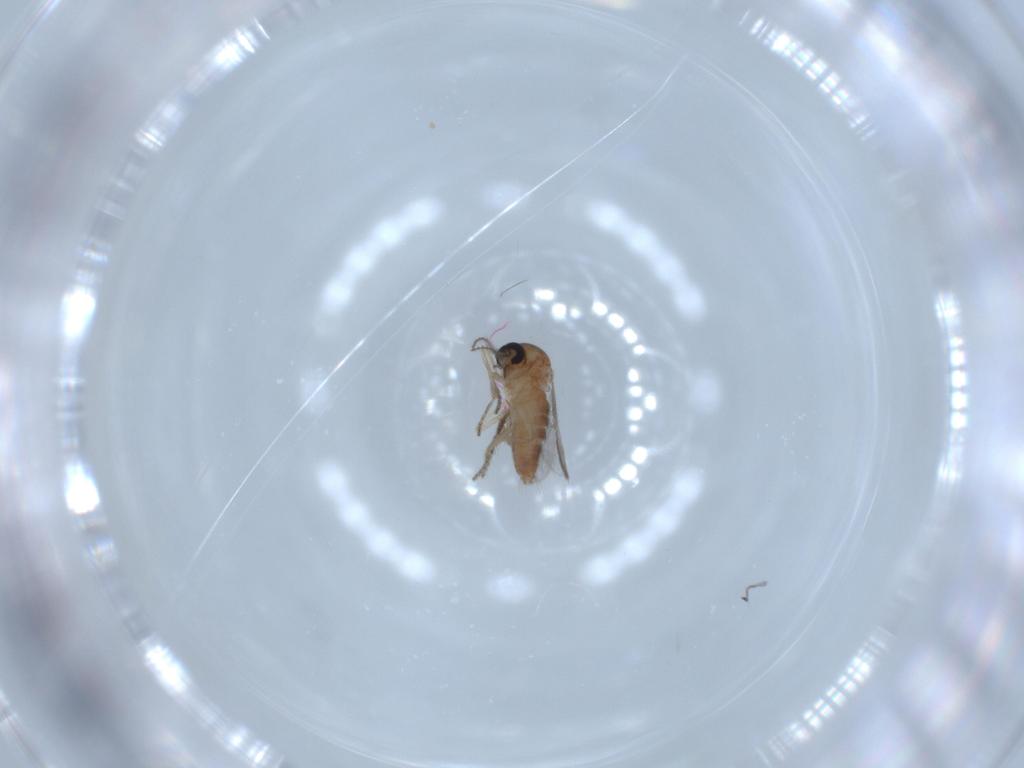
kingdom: Animalia
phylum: Arthropoda
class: Insecta
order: Diptera
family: Ceratopogonidae
